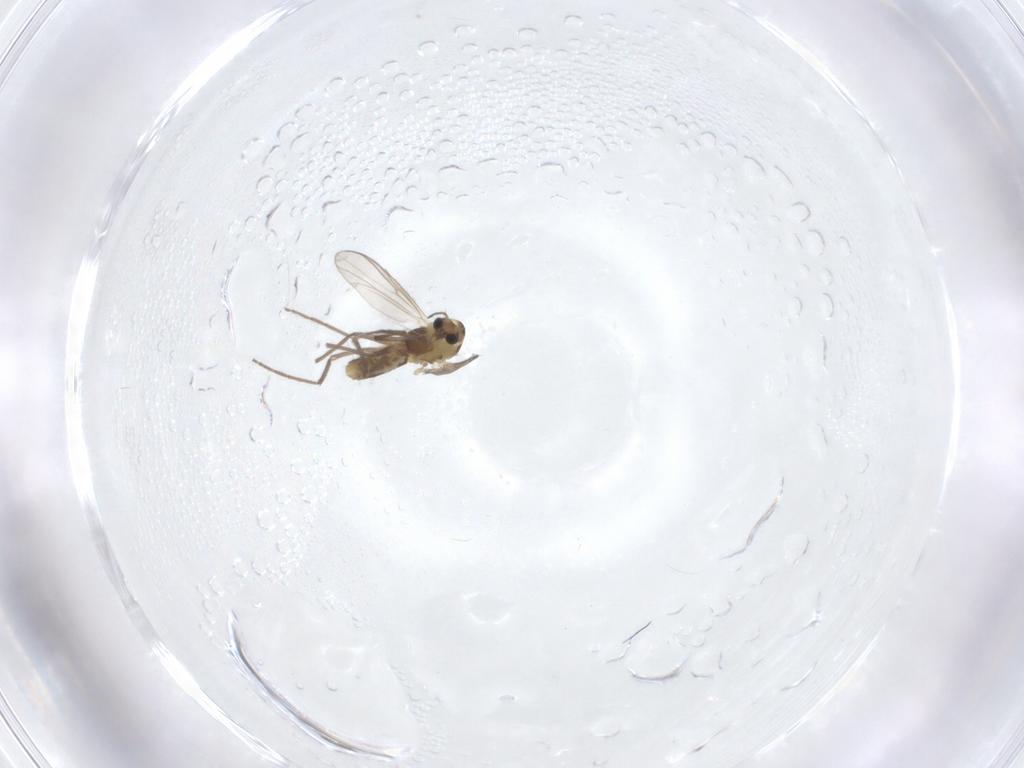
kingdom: Animalia
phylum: Arthropoda
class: Insecta
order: Diptera
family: Chironomidae
